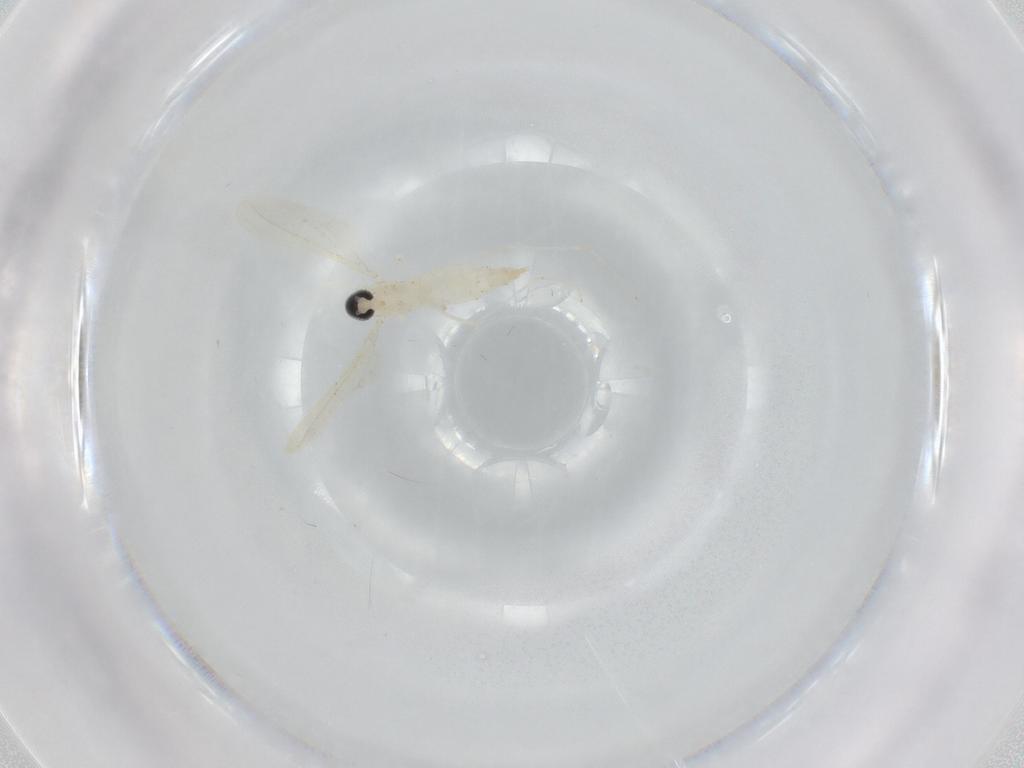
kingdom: Animalia
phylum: Arthropoda
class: Insecta
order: Diptera
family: Cecidomyiidae
